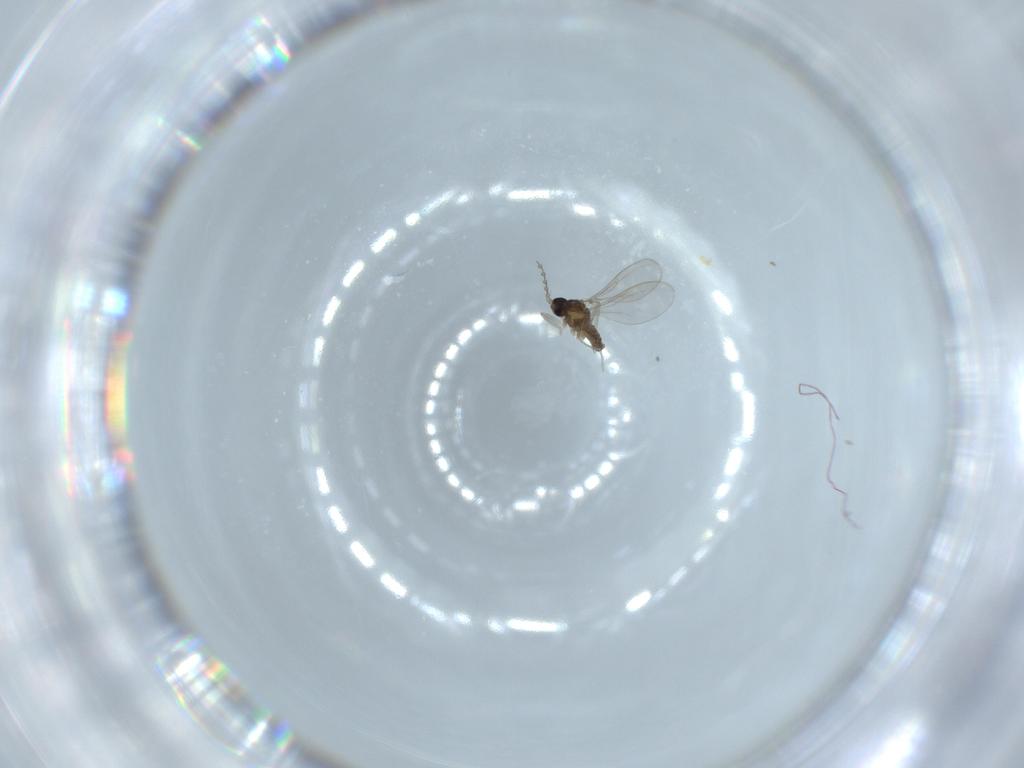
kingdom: Animalia
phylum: Arthropoda
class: Insecta
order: Diptera
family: Cecidomyiidae
